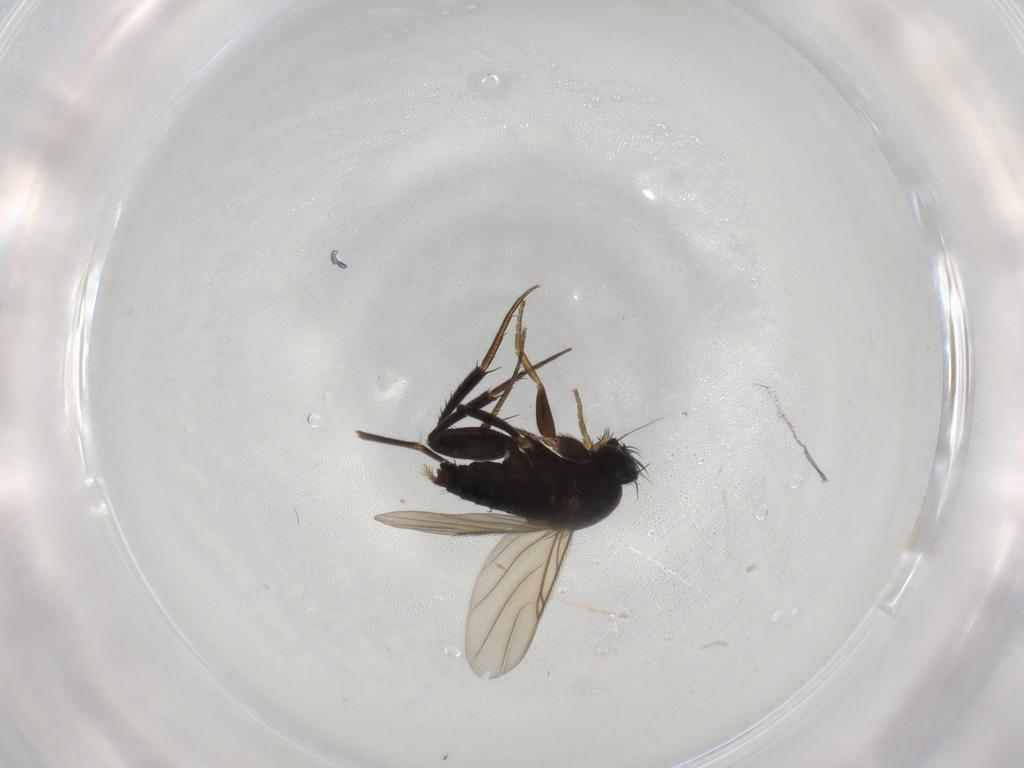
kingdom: Animalia
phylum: Arthropoda
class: Insecta
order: Diptera
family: Phoridae
